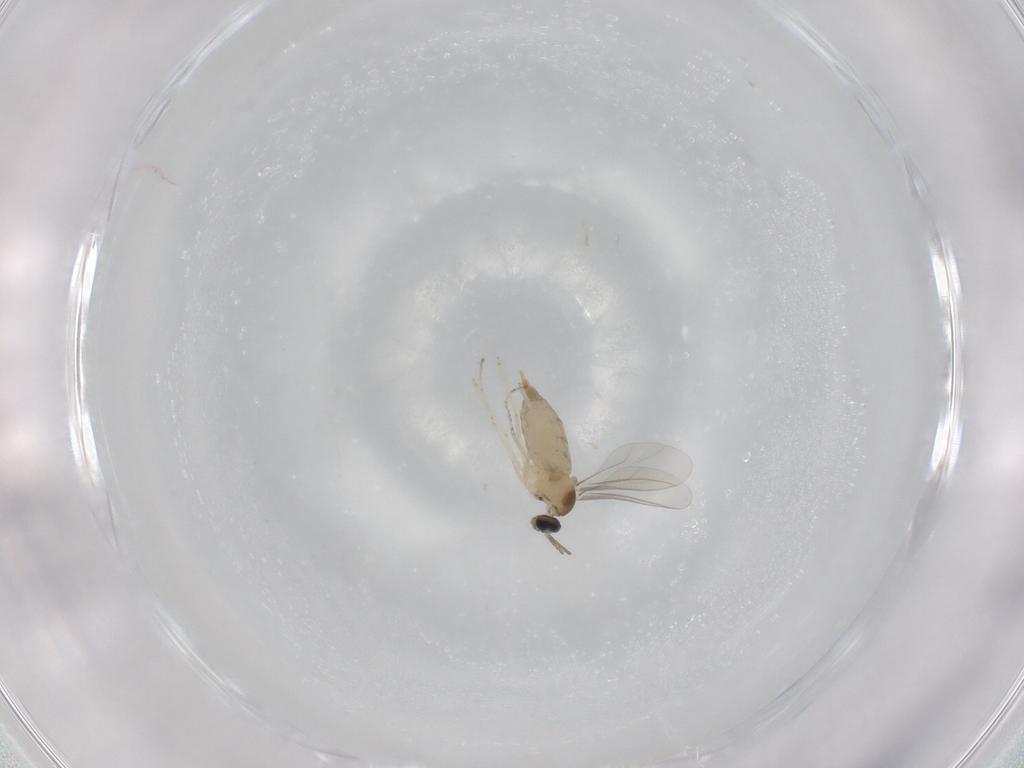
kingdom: Animalia
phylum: Arthropoda
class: Insecta
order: Diptera
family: Cecidomyiidae
